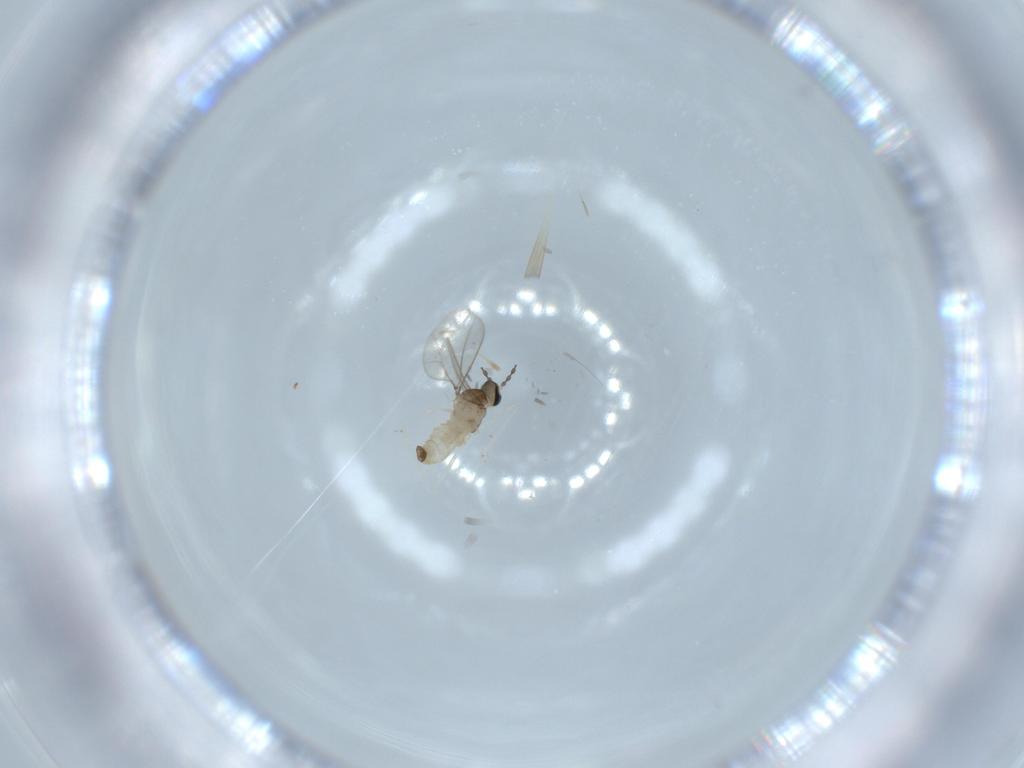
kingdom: Animalia
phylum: Arthropoda
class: Insecta
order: Diptera
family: Cecidomyiidae
